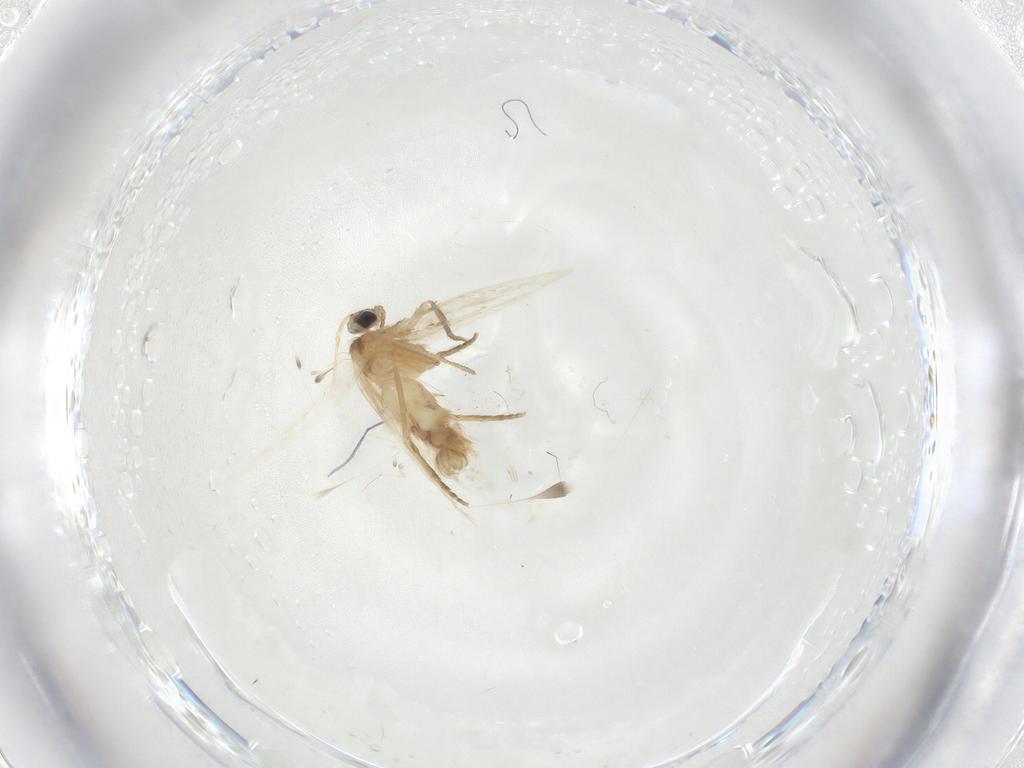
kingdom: Animalia
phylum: Arthropoda
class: Insecta
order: Lepidoptera
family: Nepticulidae
